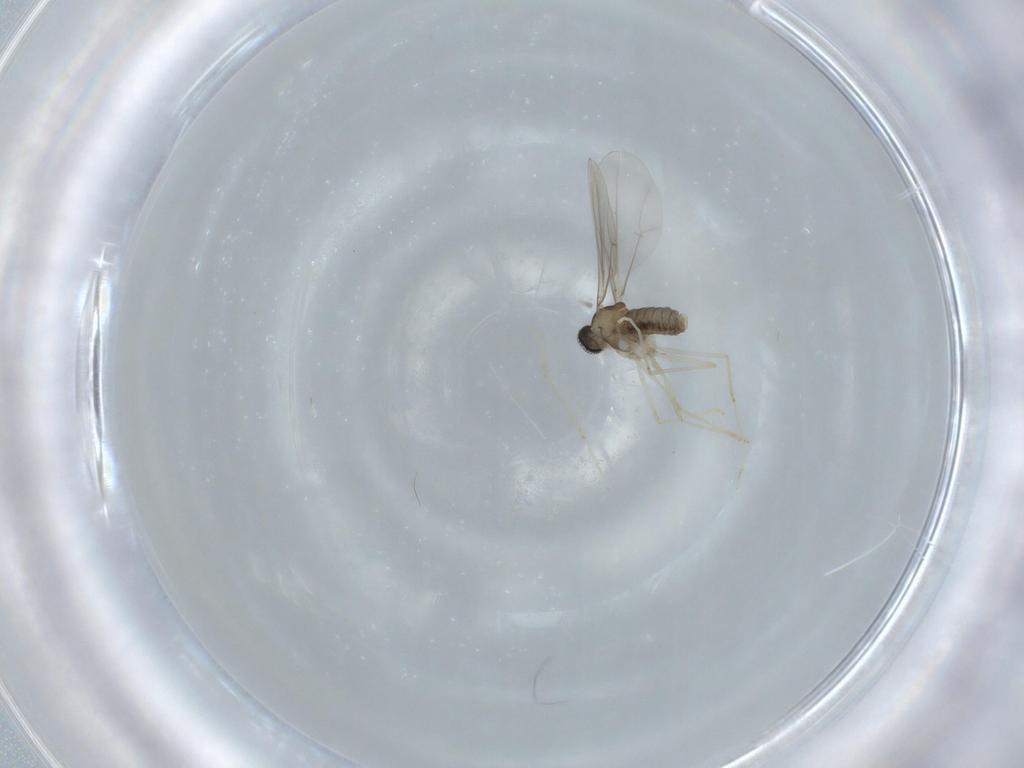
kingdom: Animalia
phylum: Arthropoda
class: Insecta
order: Diptera
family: Cecidomyiidae
